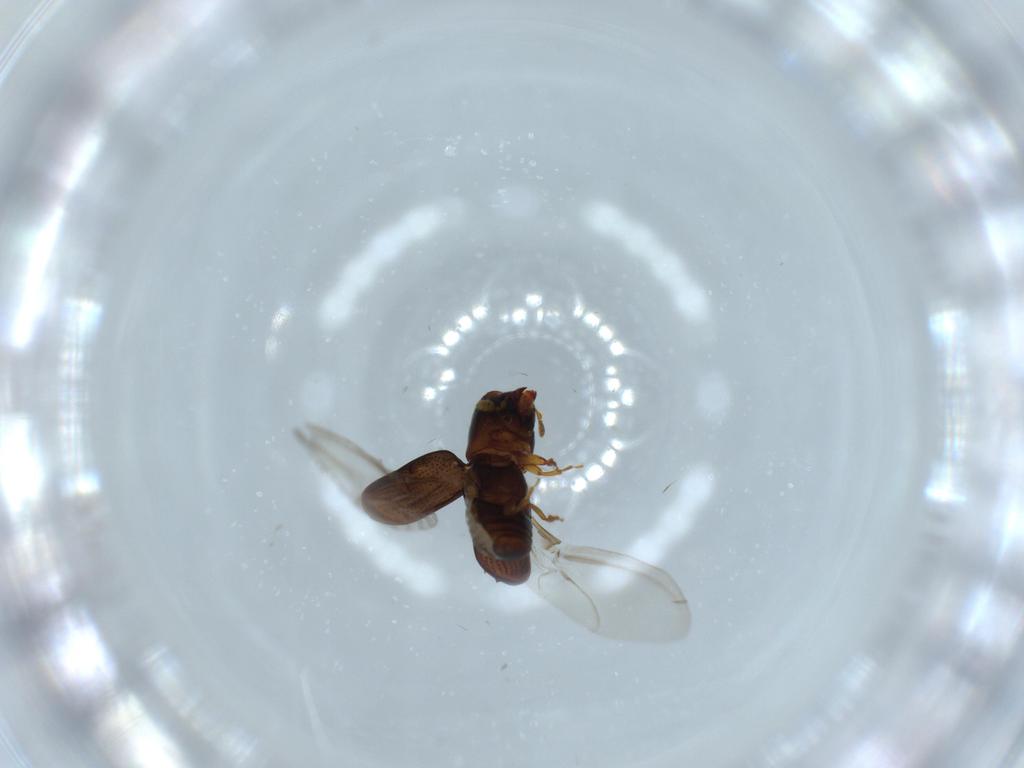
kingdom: Animalia
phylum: Arthropoda
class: Insecta
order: Coleoptera
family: Curculionidae
